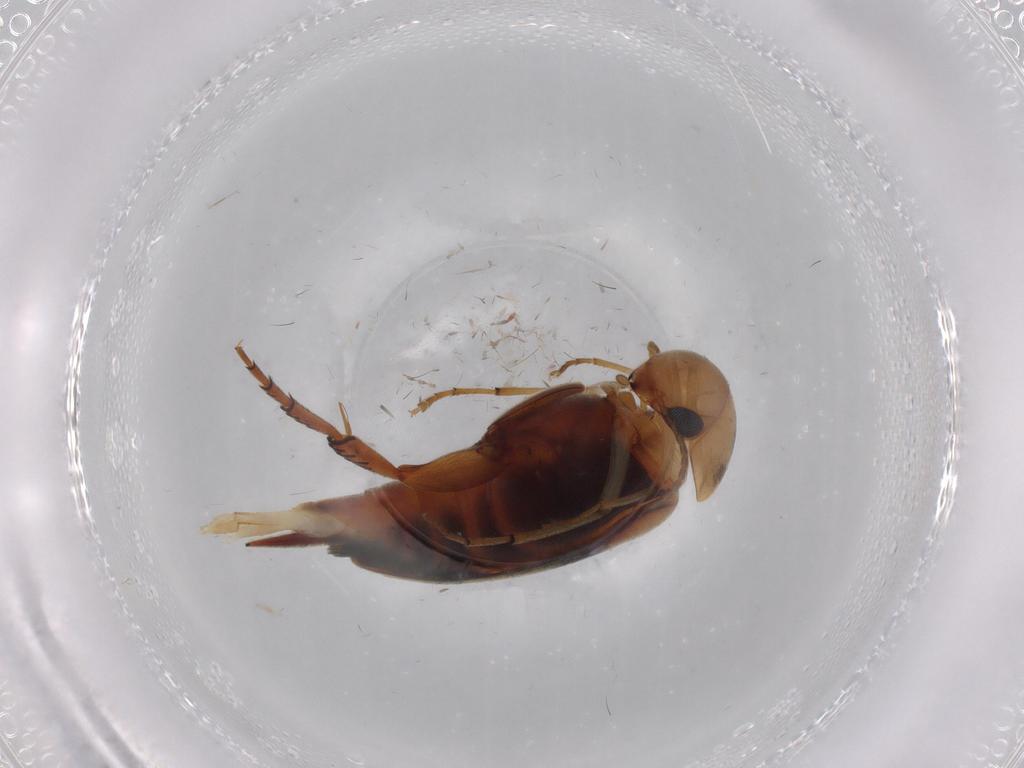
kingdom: Animalia
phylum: Arthropoda
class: Insecta
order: Coleoptera
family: Mordellidae
